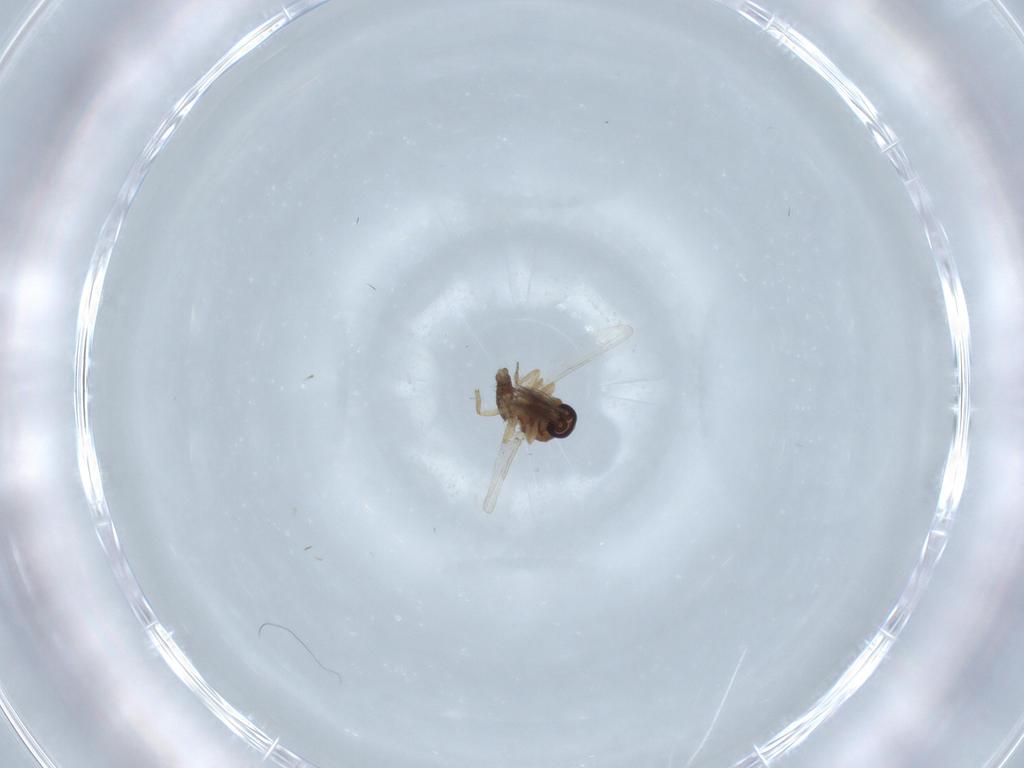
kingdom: Animalia
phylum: Arthropoda
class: Insecta
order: Diptera
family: Ceratopogonidae
